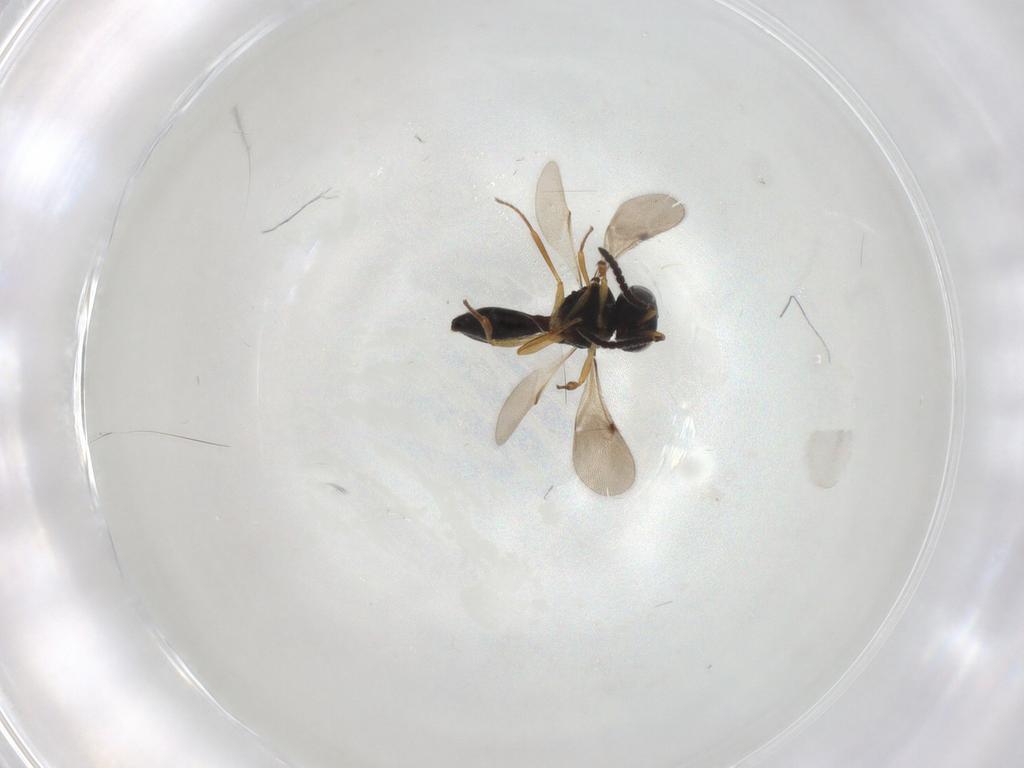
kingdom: Animalia
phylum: Arthropoda
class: Insecta
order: Hymenoptera
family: Scelionidae
